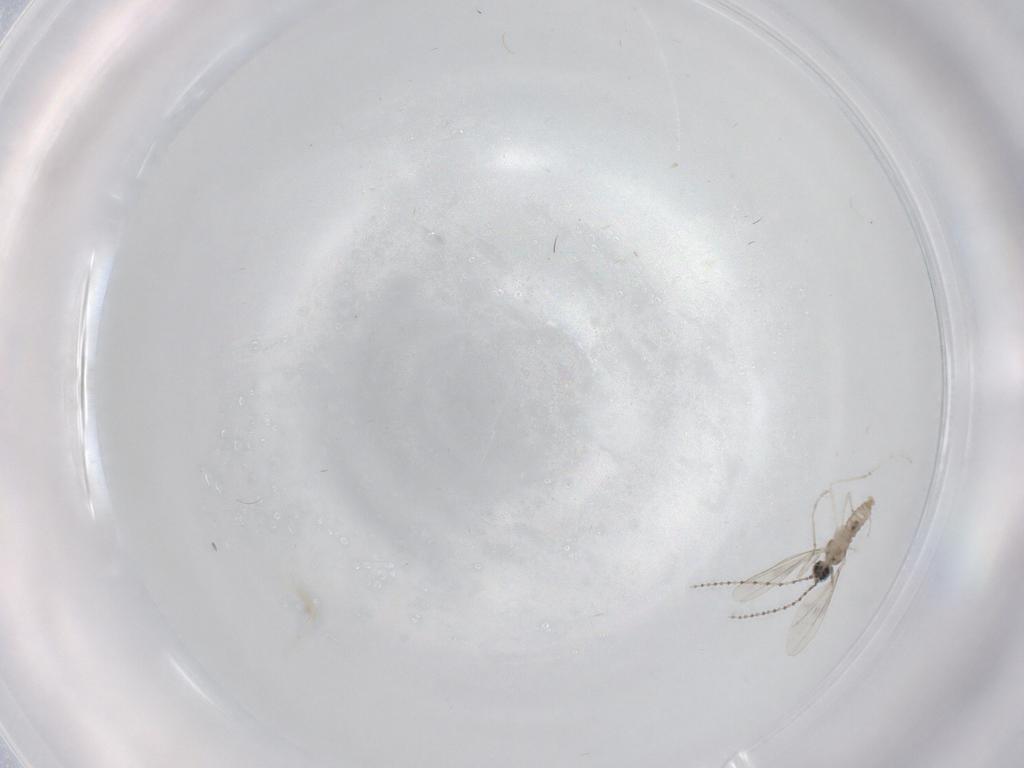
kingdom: Animalia
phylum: Arthropoda
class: Insecta
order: Diptera
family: Cecidomyiidae
